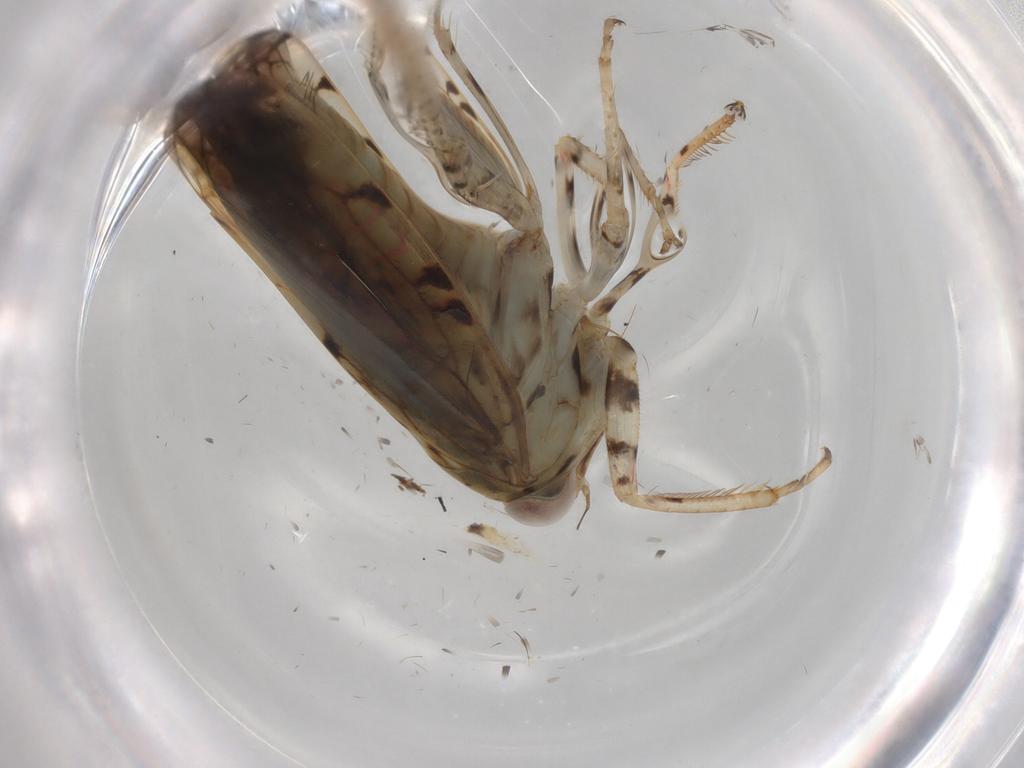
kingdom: Animalia
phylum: Arthropoda
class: Insecta
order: Hemiptera
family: Cicadellidae
